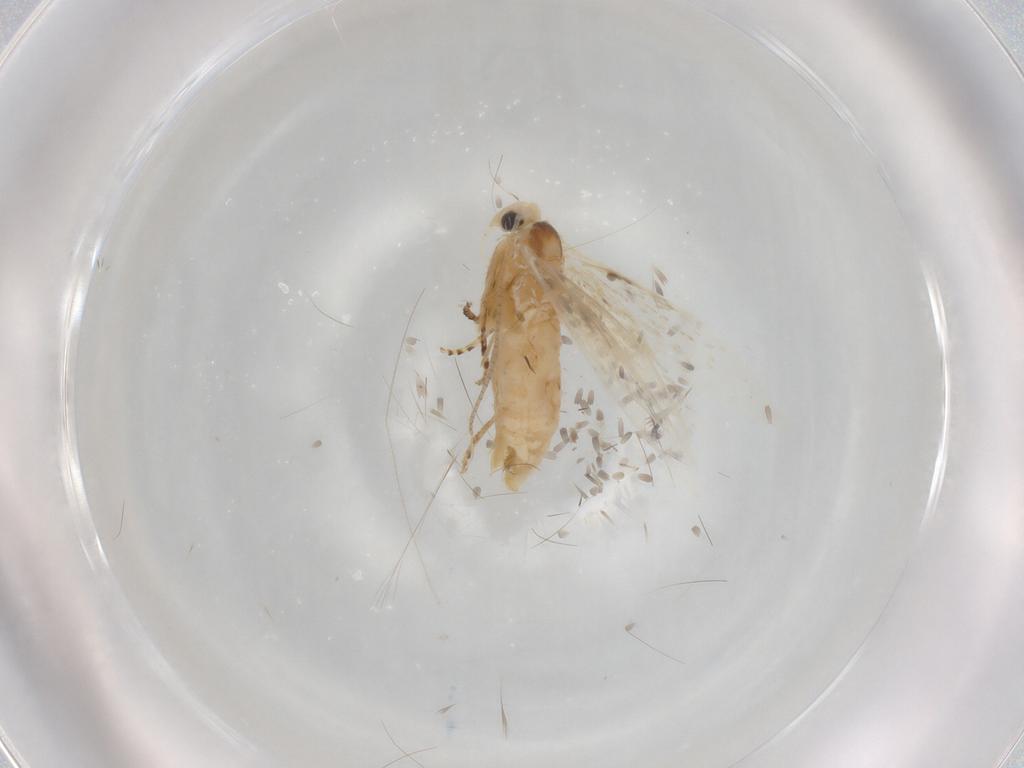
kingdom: Animalia
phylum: Arthropoda
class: Insecta
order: Lepidoptera
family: Bucculatricidae
